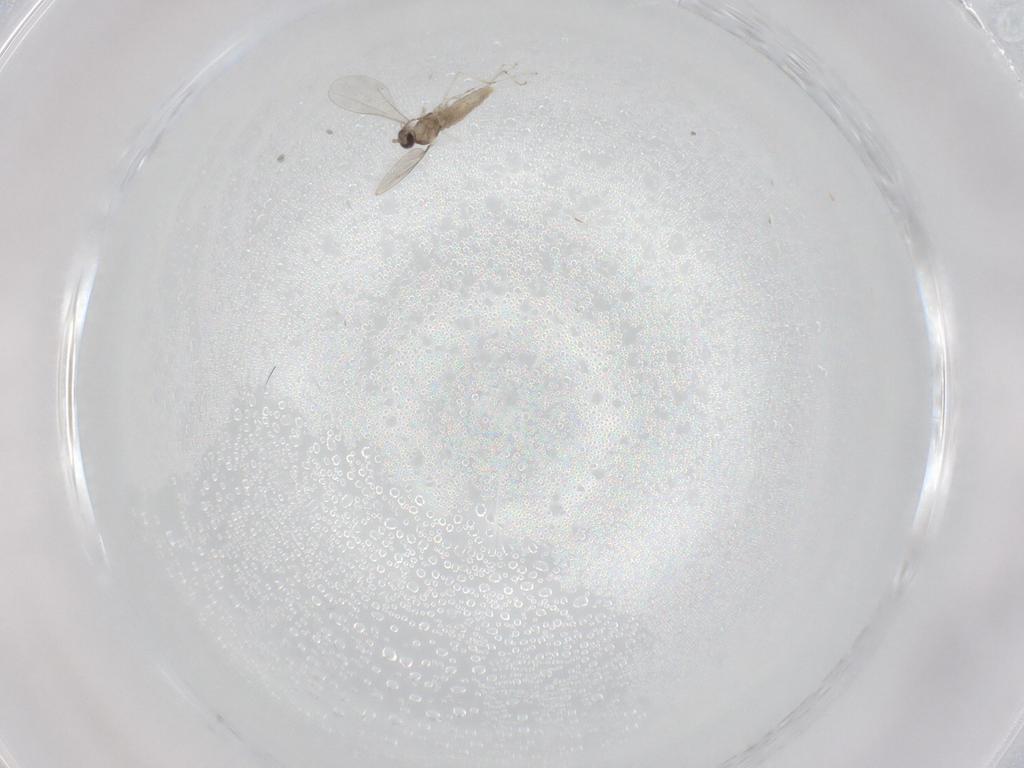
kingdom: Animalia
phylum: Arthropoda
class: Insecta
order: Diptera
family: Cecidomyiidae
